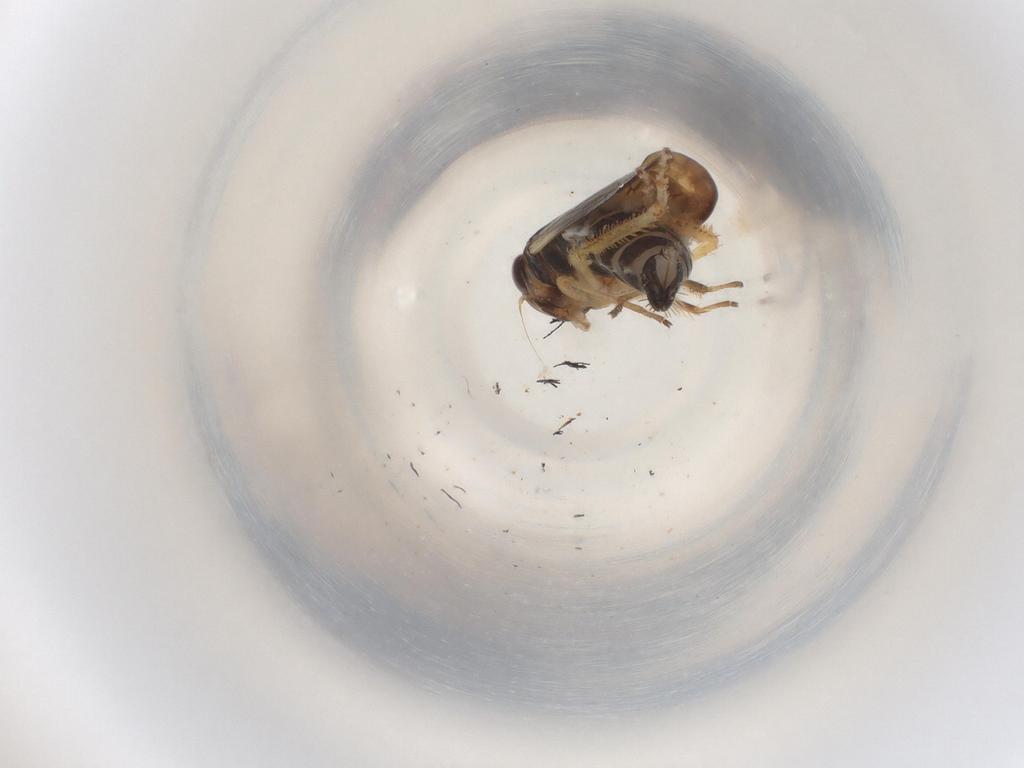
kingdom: Animalia
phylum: Arthropoda
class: Insecta
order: Hemiptera
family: Cicadellidae
